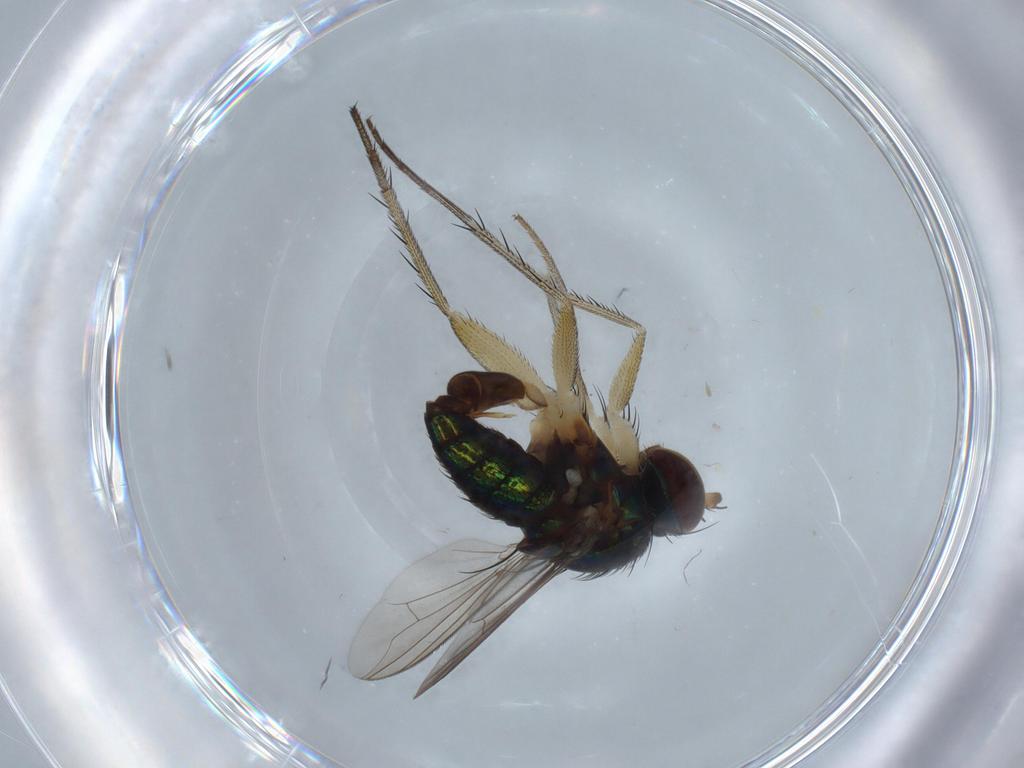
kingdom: Animalia
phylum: Arthropoda
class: Insecta
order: Diptera
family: Dolichopodidae
